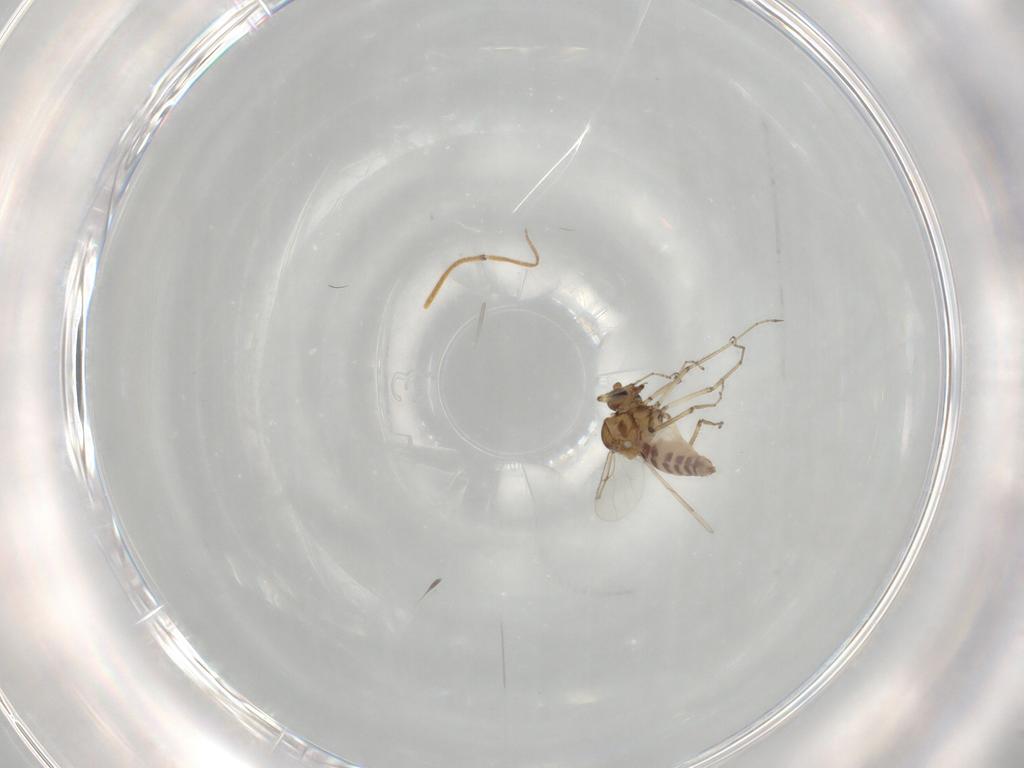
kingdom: Animalia
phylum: Arthropoda
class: Insecta
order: Diptera
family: Ceratopogonidae
